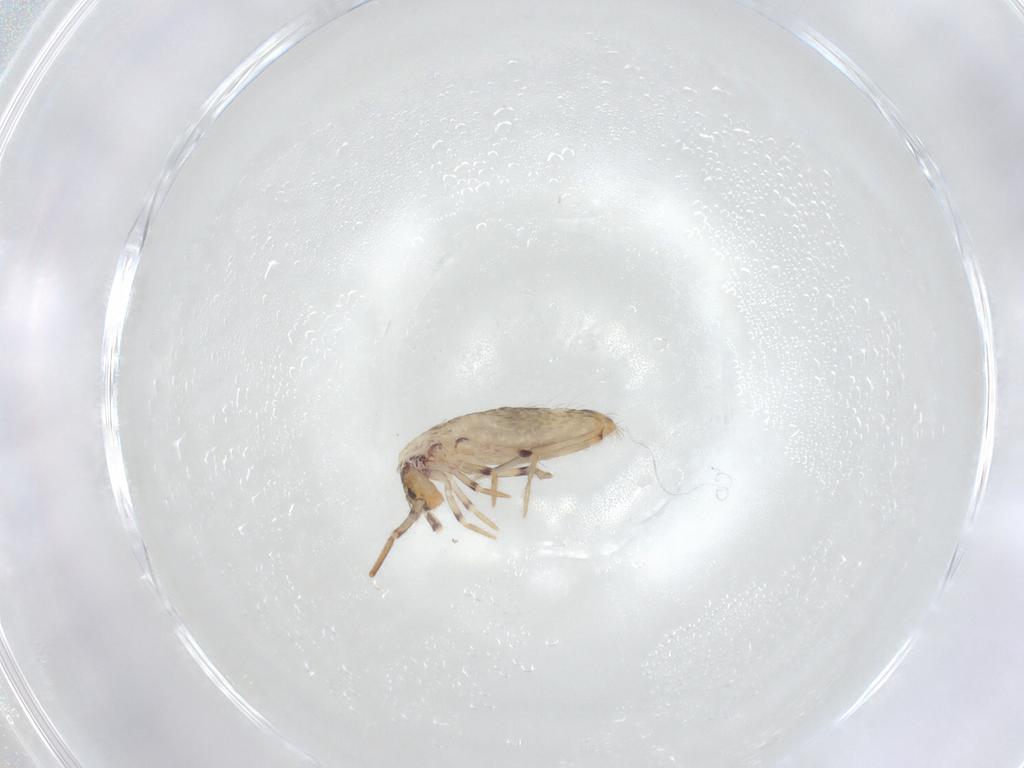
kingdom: Animalia
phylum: Arthropoda
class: Collembola
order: Entomobryomorpha
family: Entomobryidae
